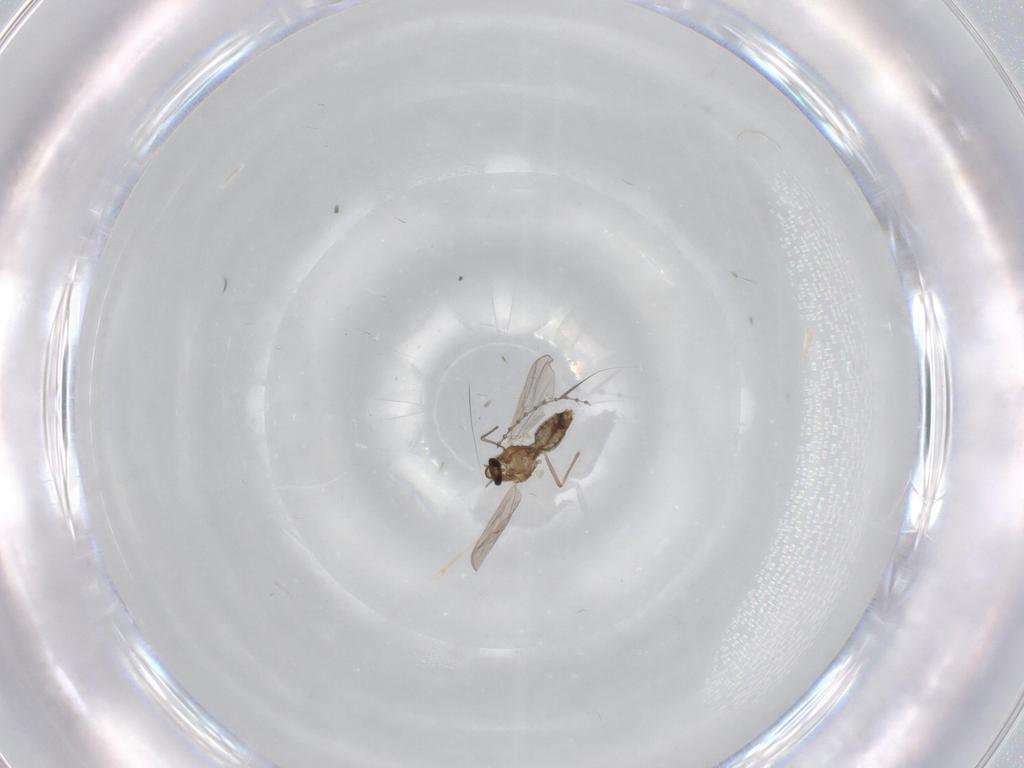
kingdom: Animalia
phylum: Arthropoda
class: Insecta
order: Diptera
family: Chironomidae
